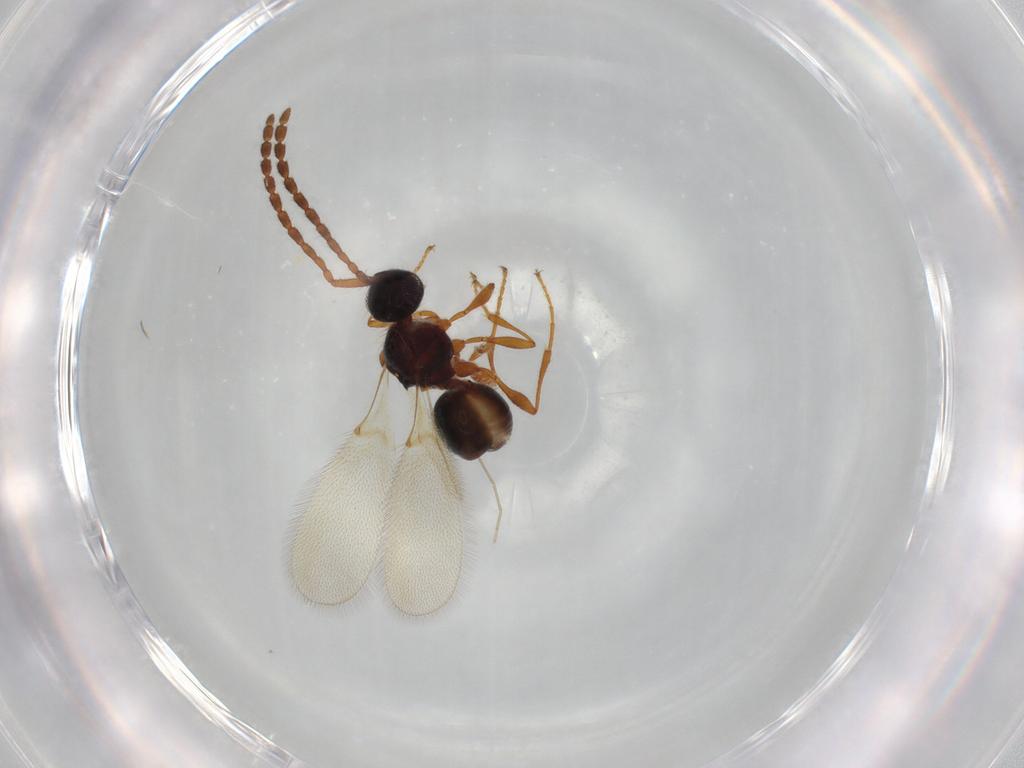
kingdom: Animalia
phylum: Arthropoda
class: Insecta
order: Hymenoptera
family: Diapriidae
